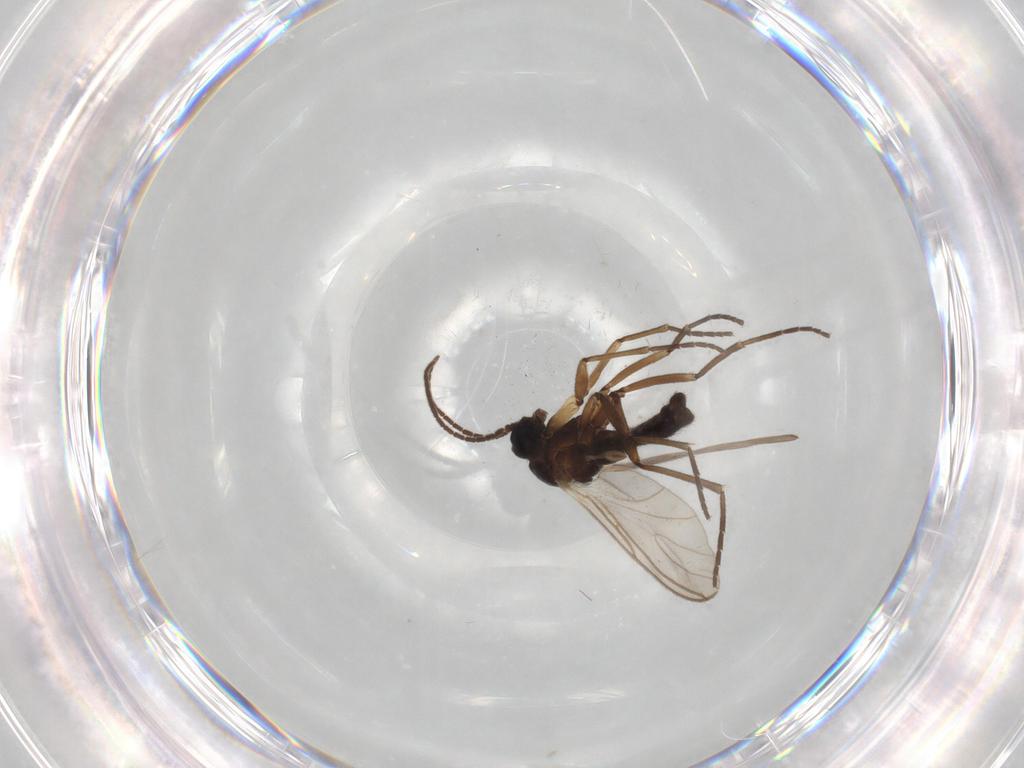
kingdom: Animalia
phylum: Arthropoda
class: Insecta
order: Diptera
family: Sciaridae
